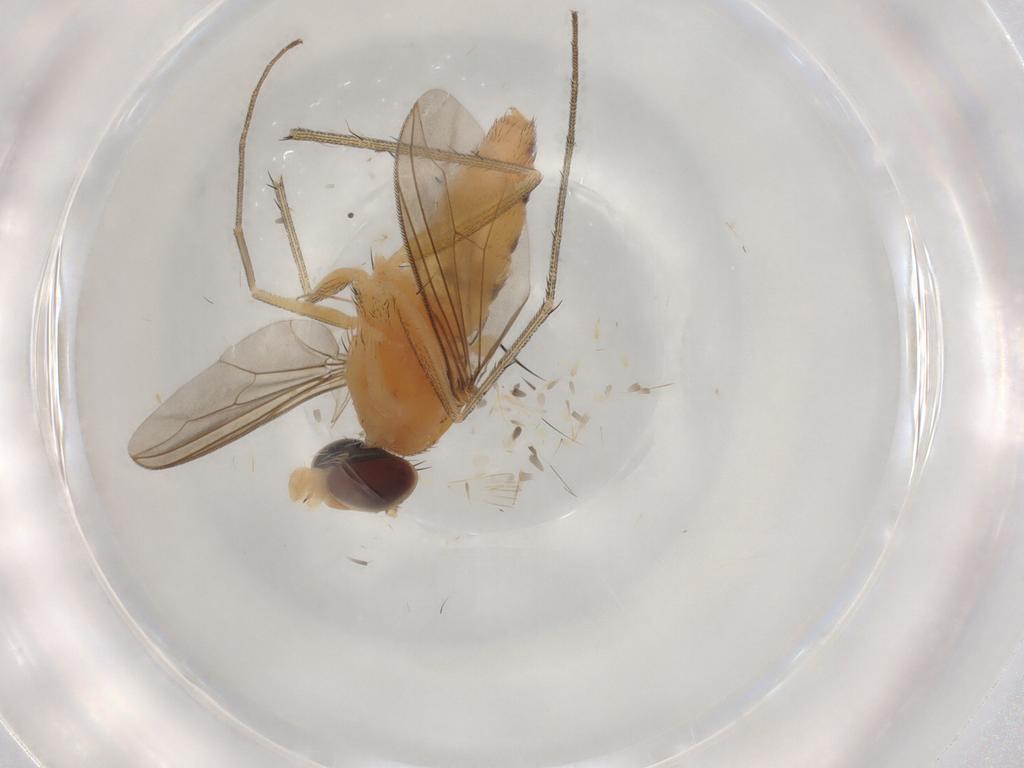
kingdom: Animalia
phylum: Arthropoda
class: Insecta
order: Diptera
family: Dolichopodidae
